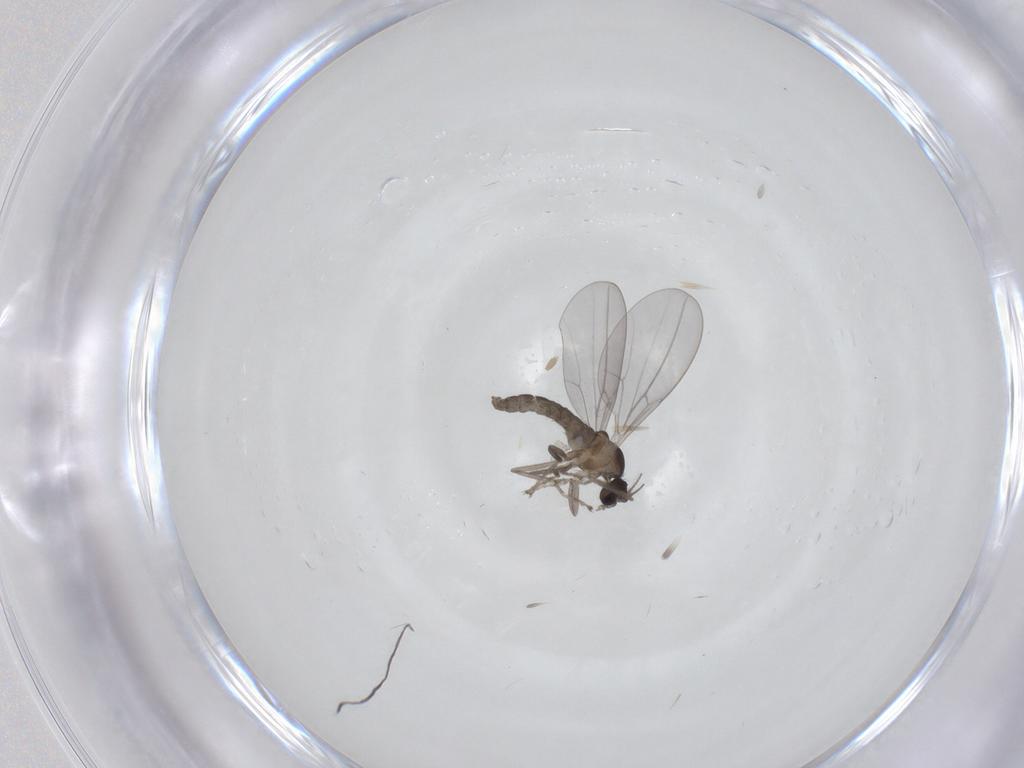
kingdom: Animalia
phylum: Arthropoda
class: Insecta
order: Diptera
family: Cecidomyiidae
